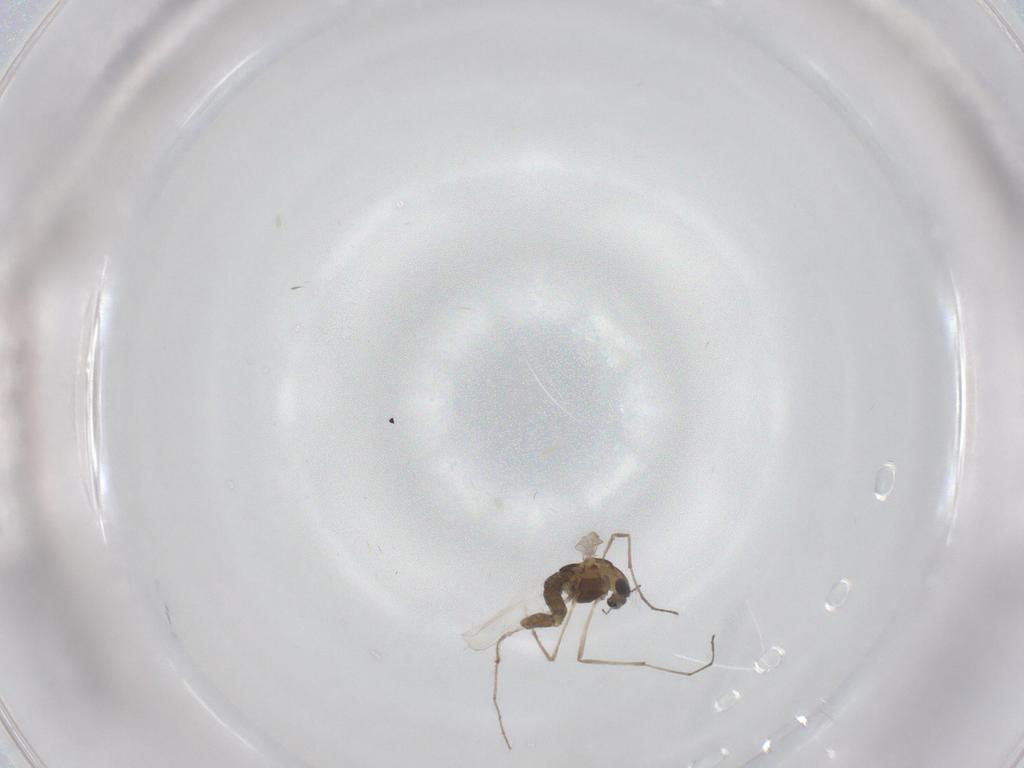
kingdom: Animalia
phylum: Arthropoda
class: Insecta
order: Diptera
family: Chironomidae
